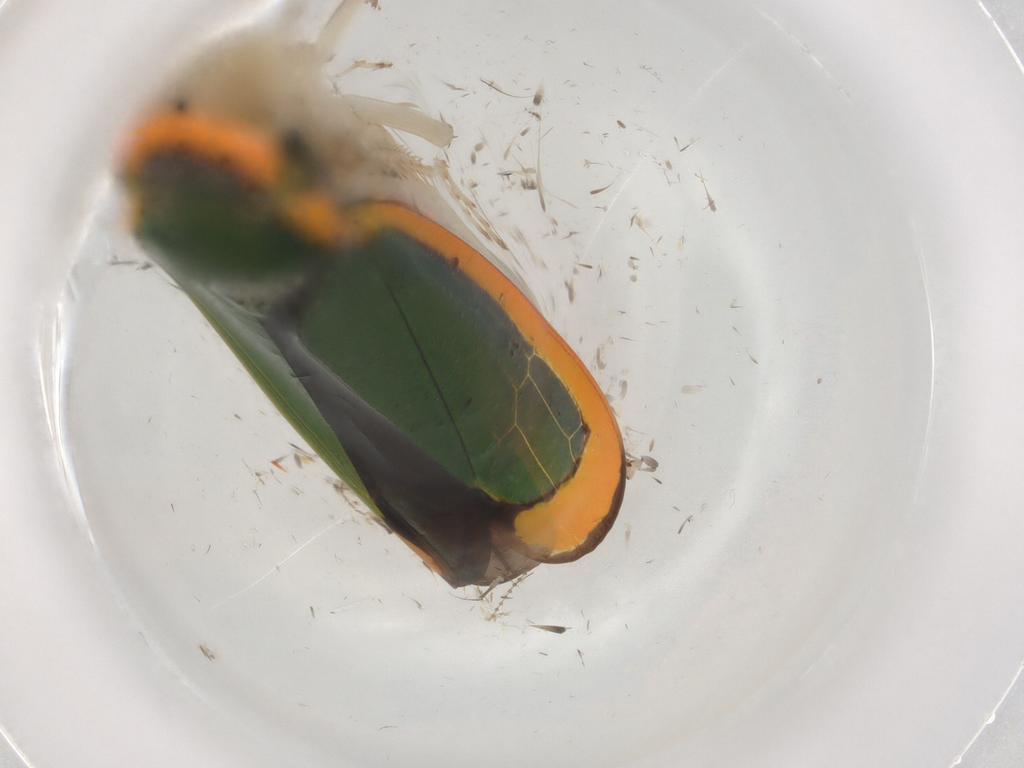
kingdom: Animalia
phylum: Arthropoda
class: Insecta
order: Hemiptera
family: Cicadellidae
